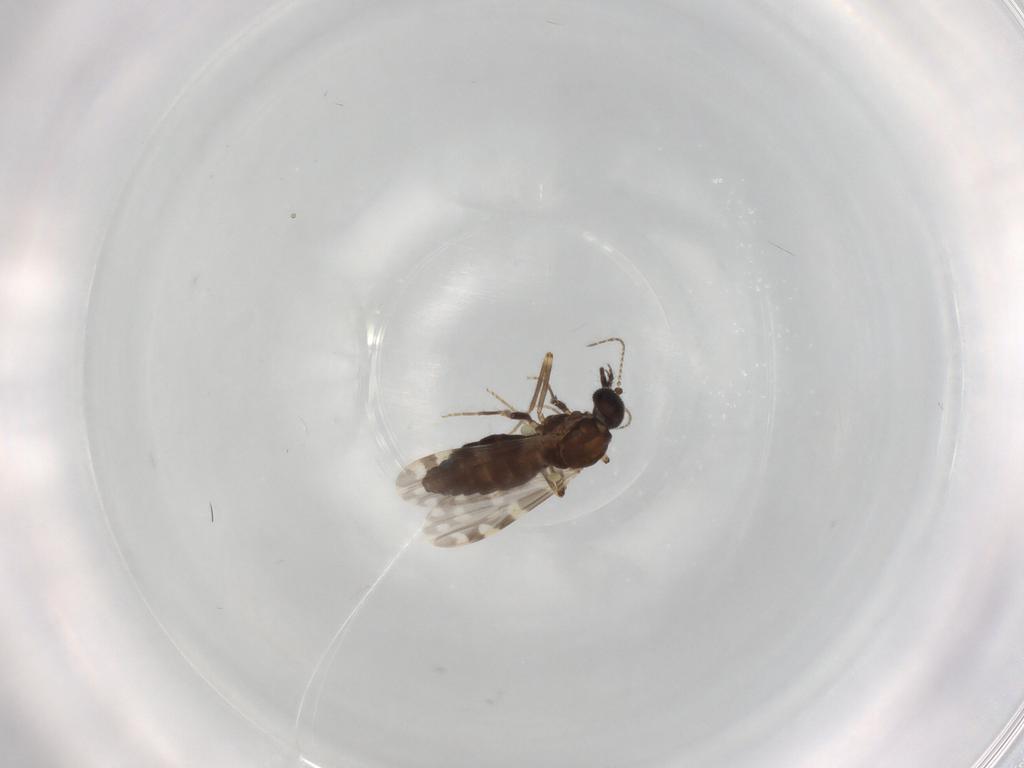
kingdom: Animalia
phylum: Arthropoda
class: Insecta
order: Diptera
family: Ceratopogonidae
